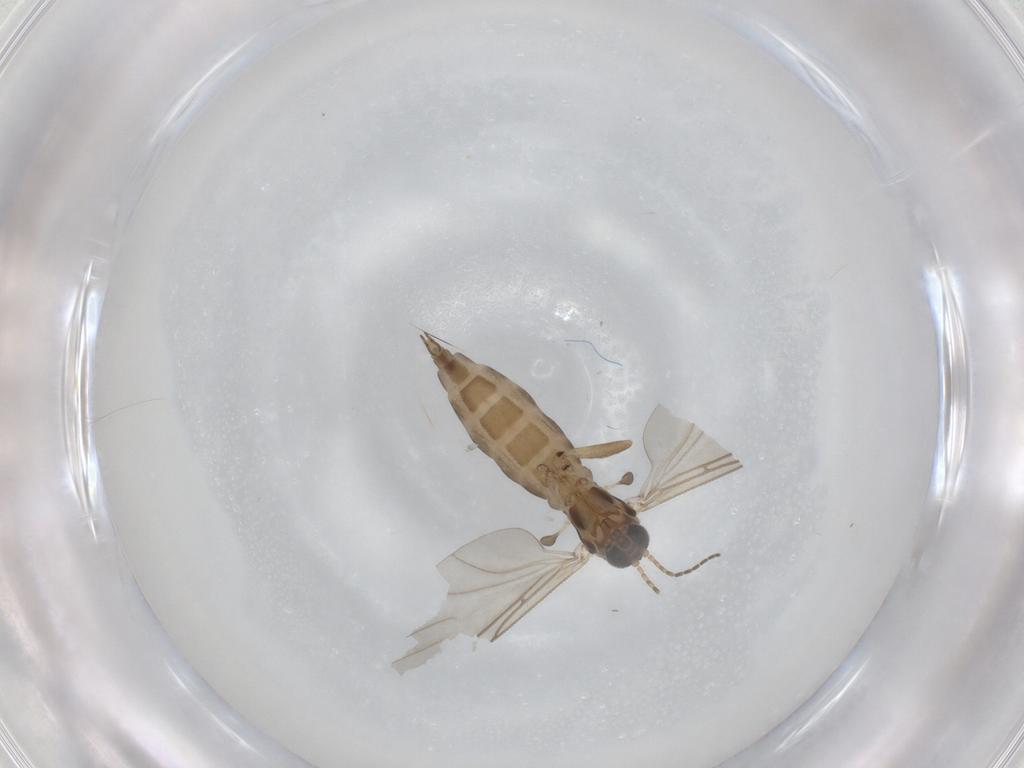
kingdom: Animalia
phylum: Arthropoda
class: Insecta
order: Diptera
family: Sciaridae
